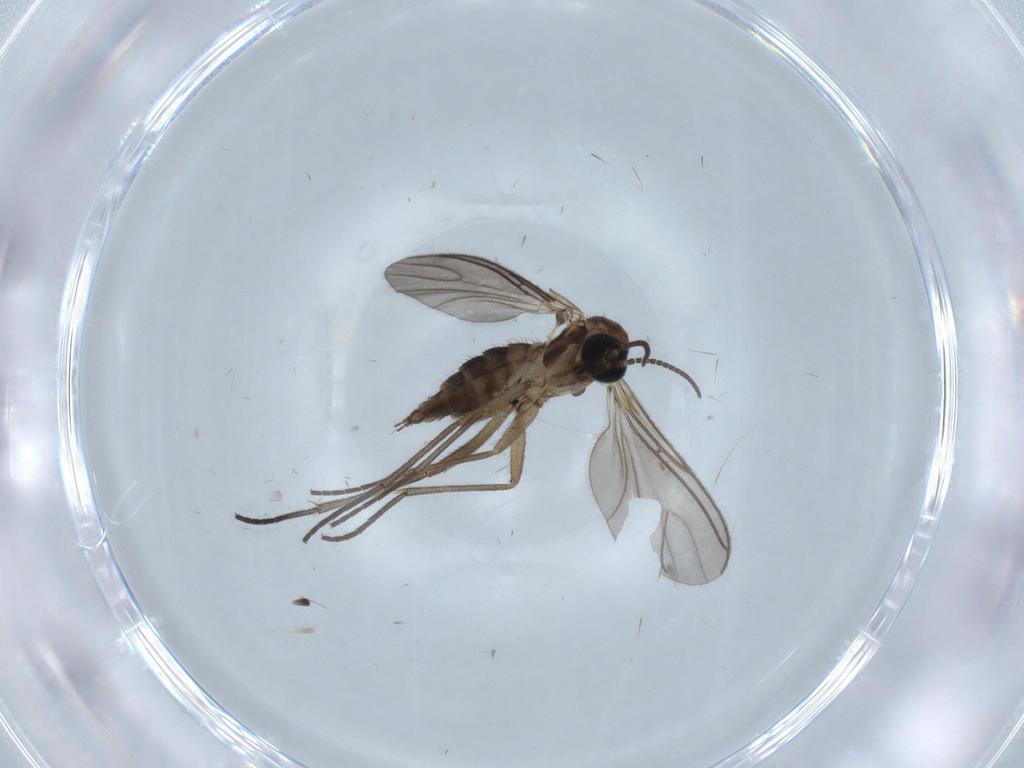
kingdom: Animalia
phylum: Arthropoda
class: Insecta
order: Diptera
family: Sciaridae
